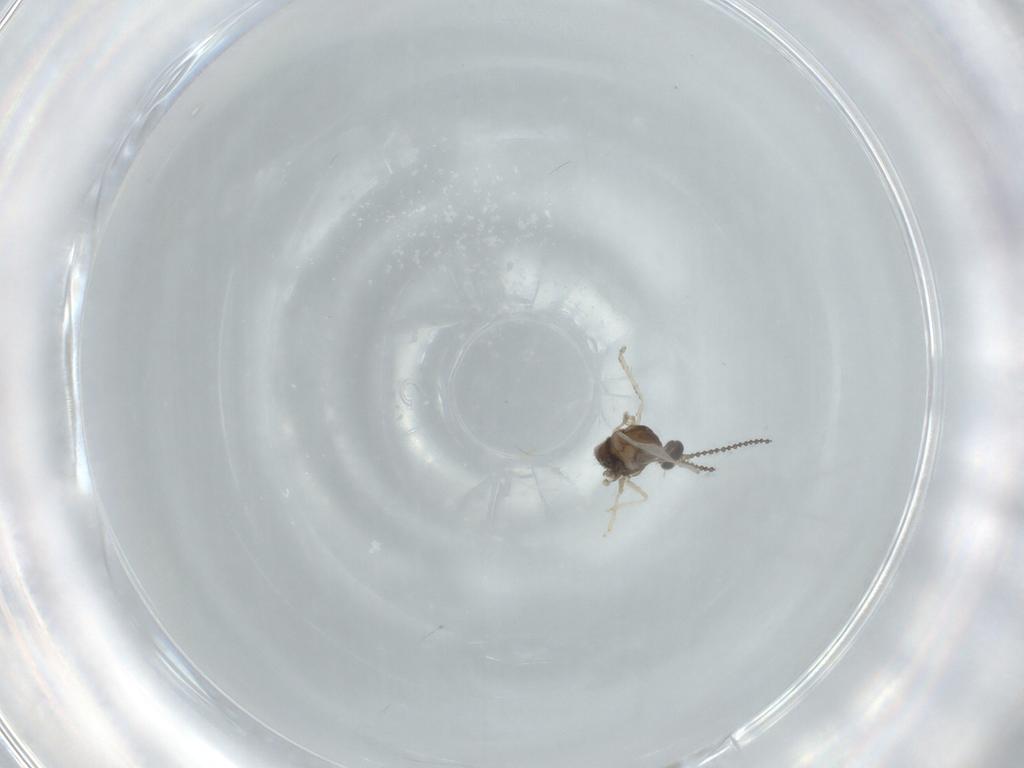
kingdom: Animalia
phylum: Arthropoda
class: Insecta
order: Diptera
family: Cecidomyiidae
